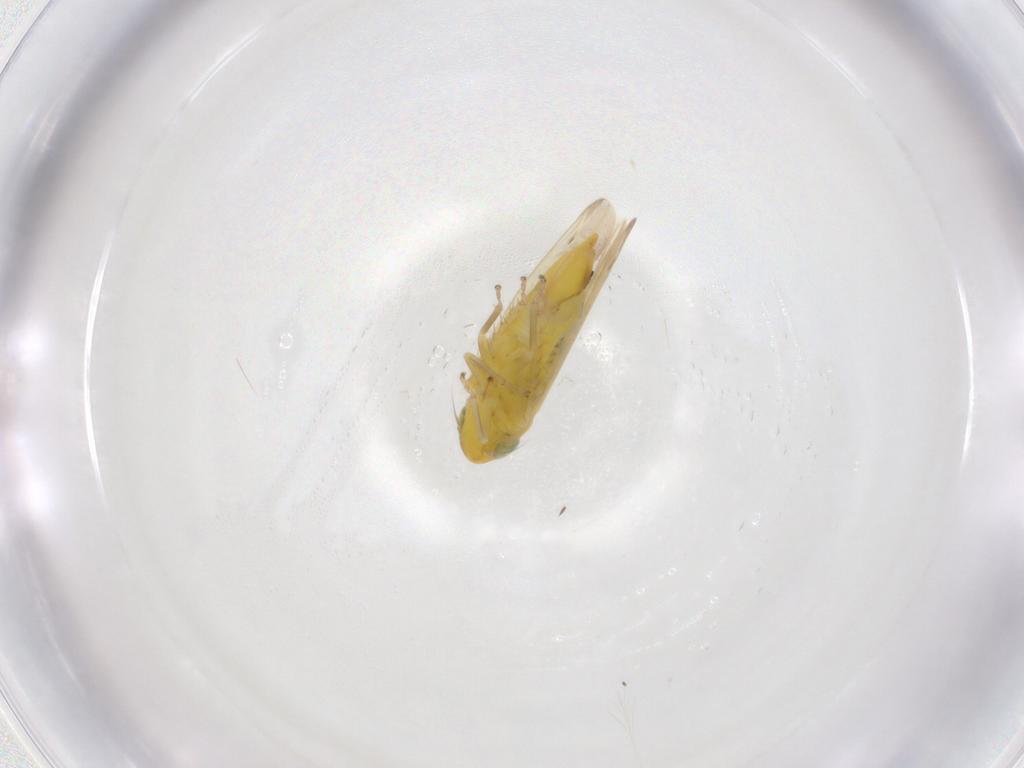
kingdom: Animalia
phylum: Arthropoda
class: Insecta
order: Hemiptera
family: Cicadellidae
